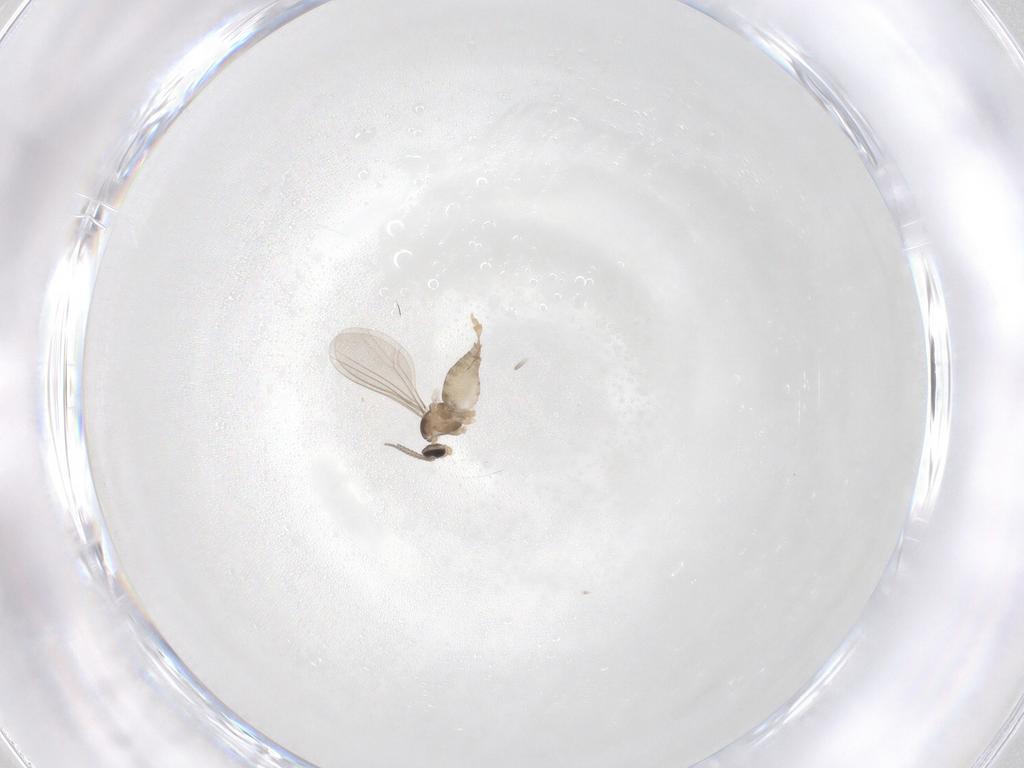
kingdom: Animalia
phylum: Arthropoda
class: Insecta
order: Diptera
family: Cecidomyiidae
